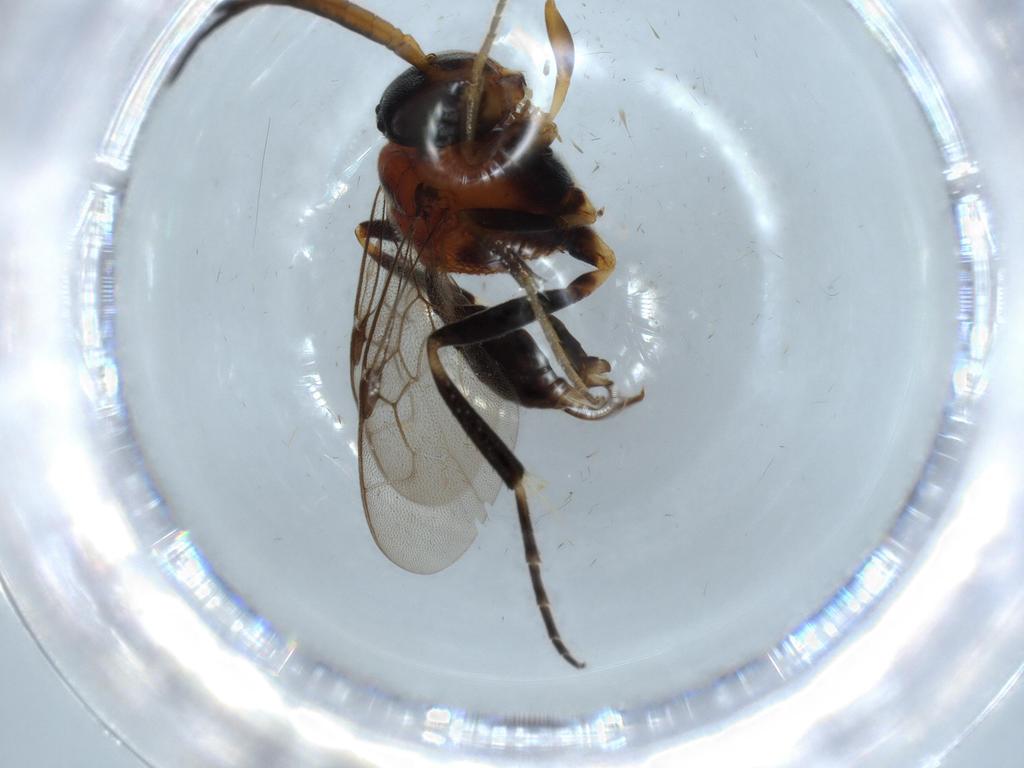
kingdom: Animalia
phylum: Arthropoda
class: Insecta
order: Hymenoptera
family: Evaniidae
